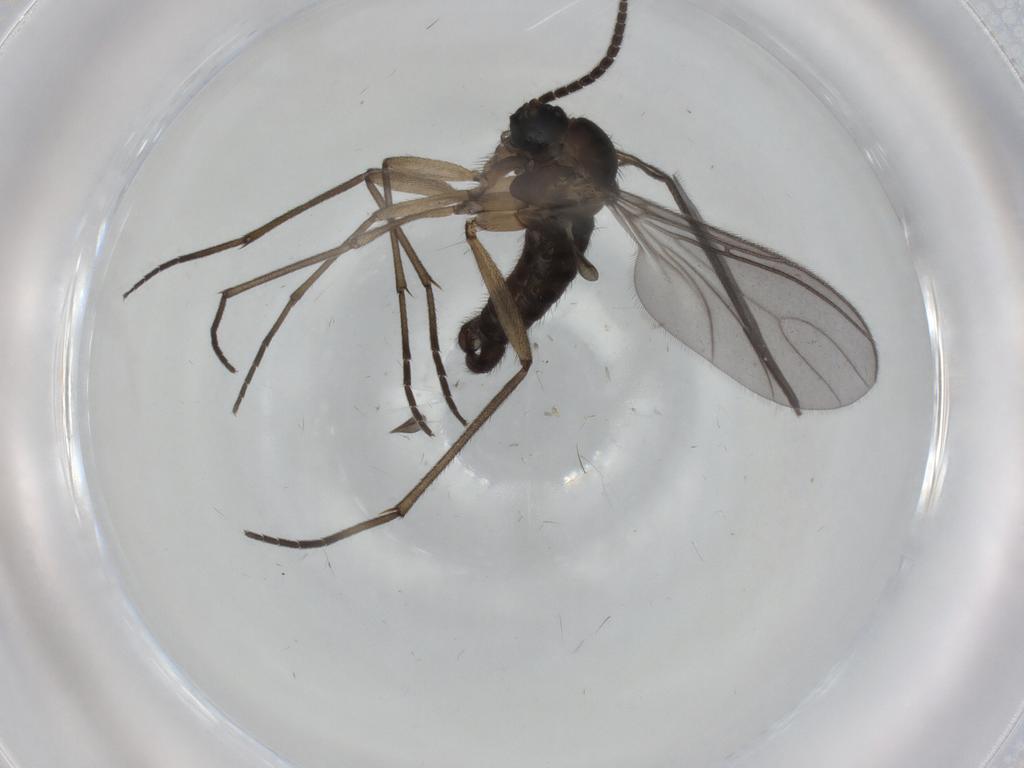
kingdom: Animalia
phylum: Arthropoda
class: Insecta
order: Diptera
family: Sciaridae
